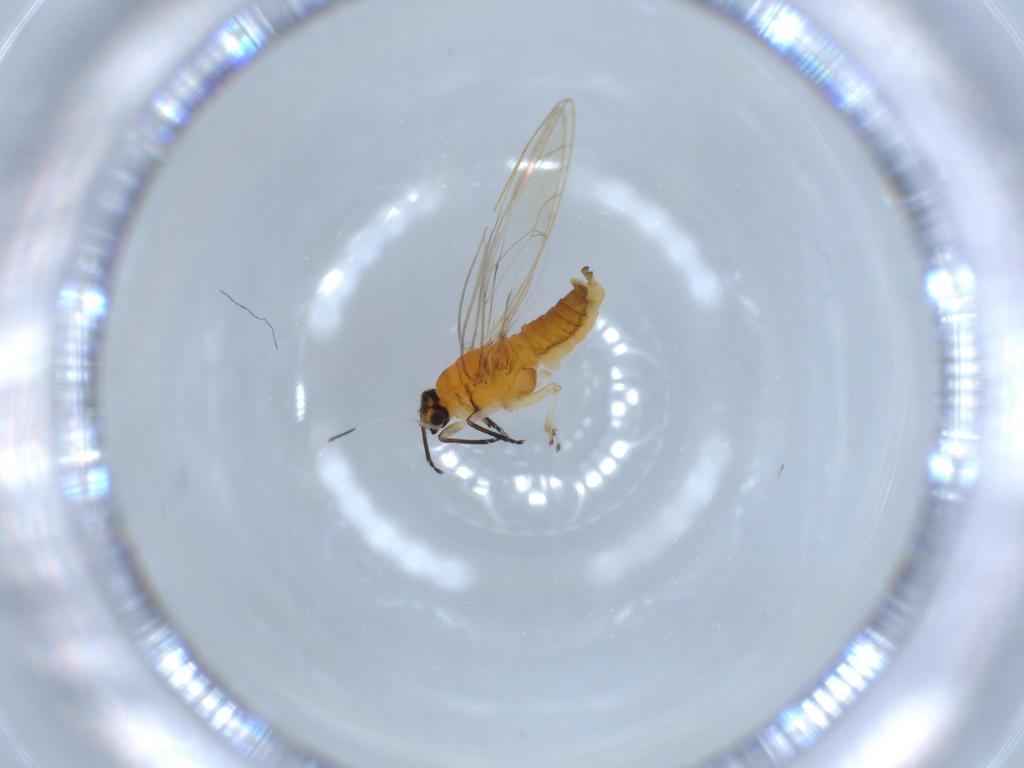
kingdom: Animalia
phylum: Arthropoda
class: Insecta
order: Hemiptera
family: Triozidae
